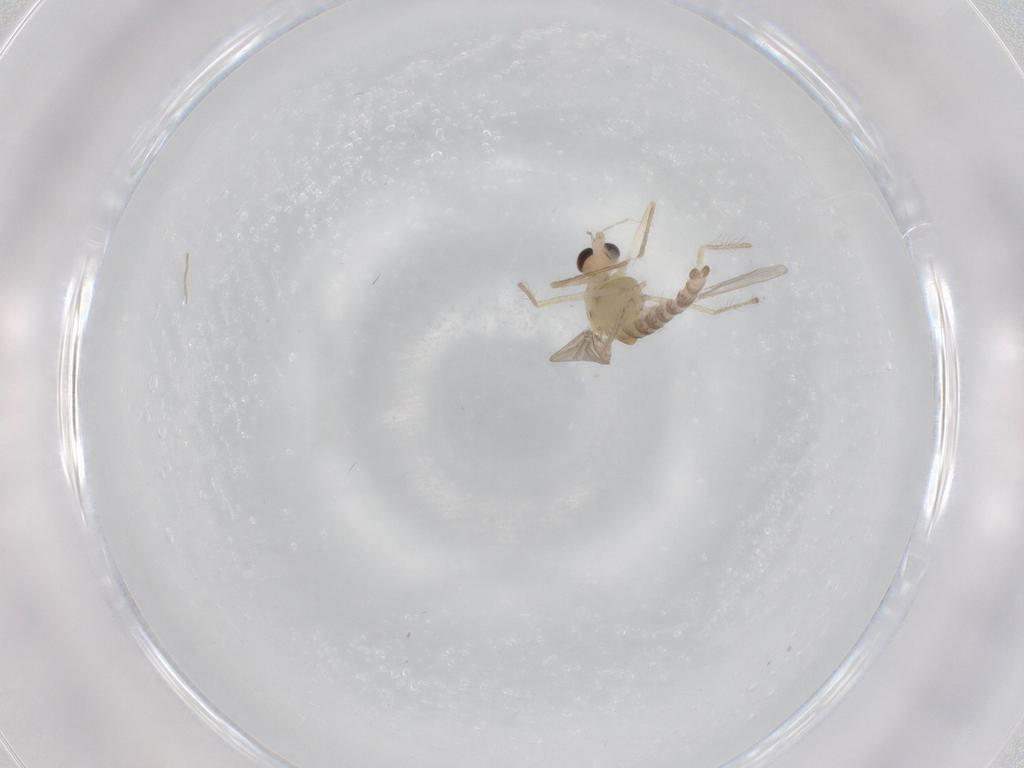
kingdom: Animalia
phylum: Arthropoda
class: Insecta
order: Diptera
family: Chironomidae
